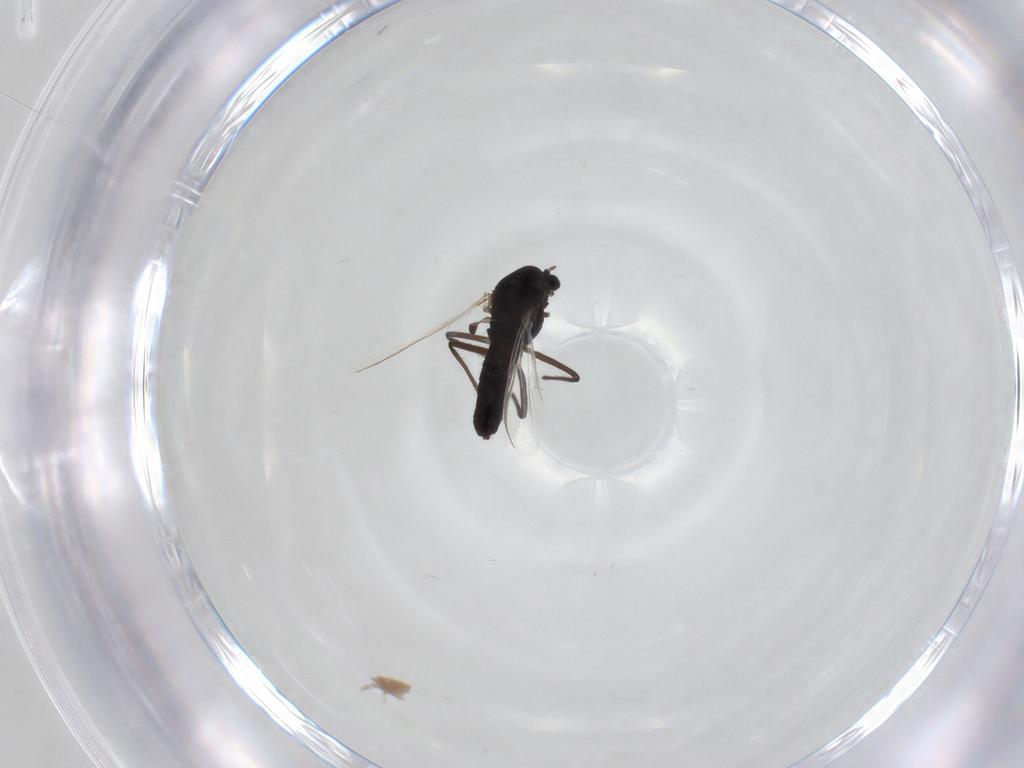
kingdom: Animalia
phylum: Arthropoda
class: Insecta
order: Diptera
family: Chironomidae
